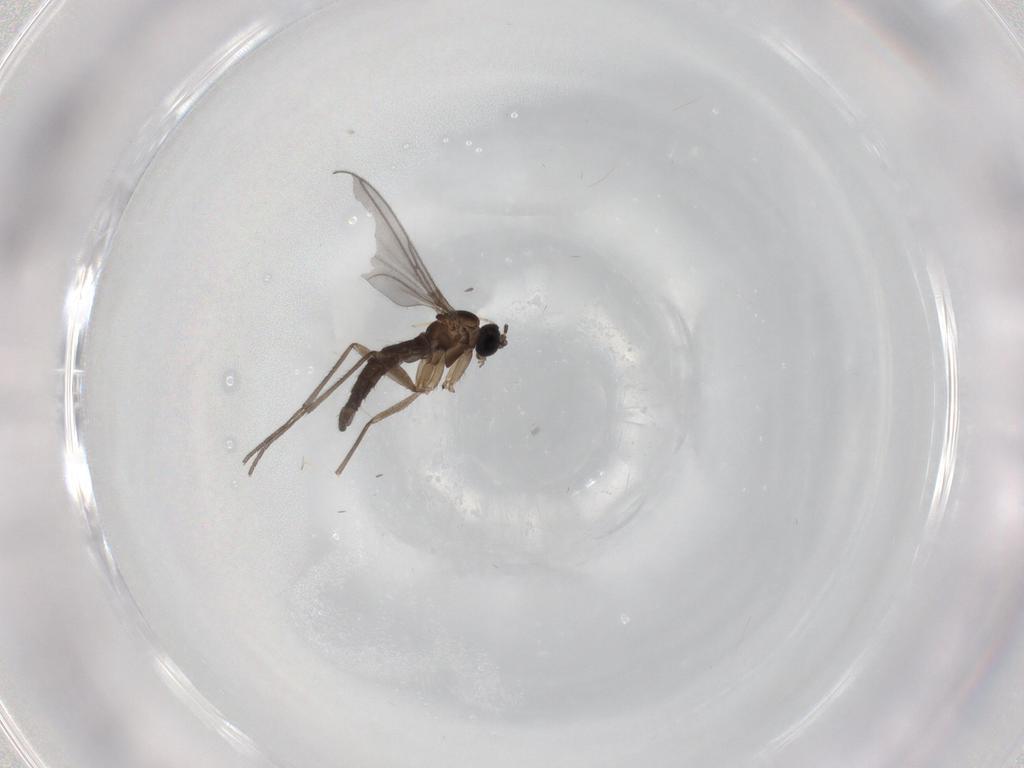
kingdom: Animalia
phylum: Arthropoda
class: Insecta
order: Diptera
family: Sciaridae
